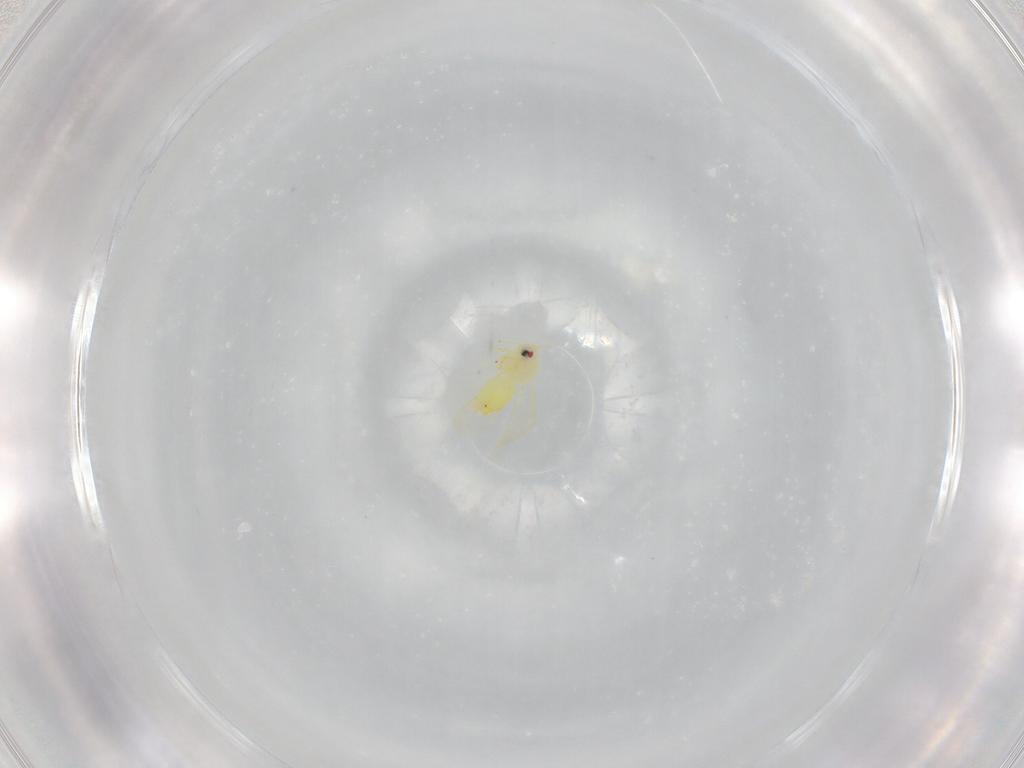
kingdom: Animalia
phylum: Arthropoda
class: Insecta
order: Hemiptera
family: Aleyrodidae
